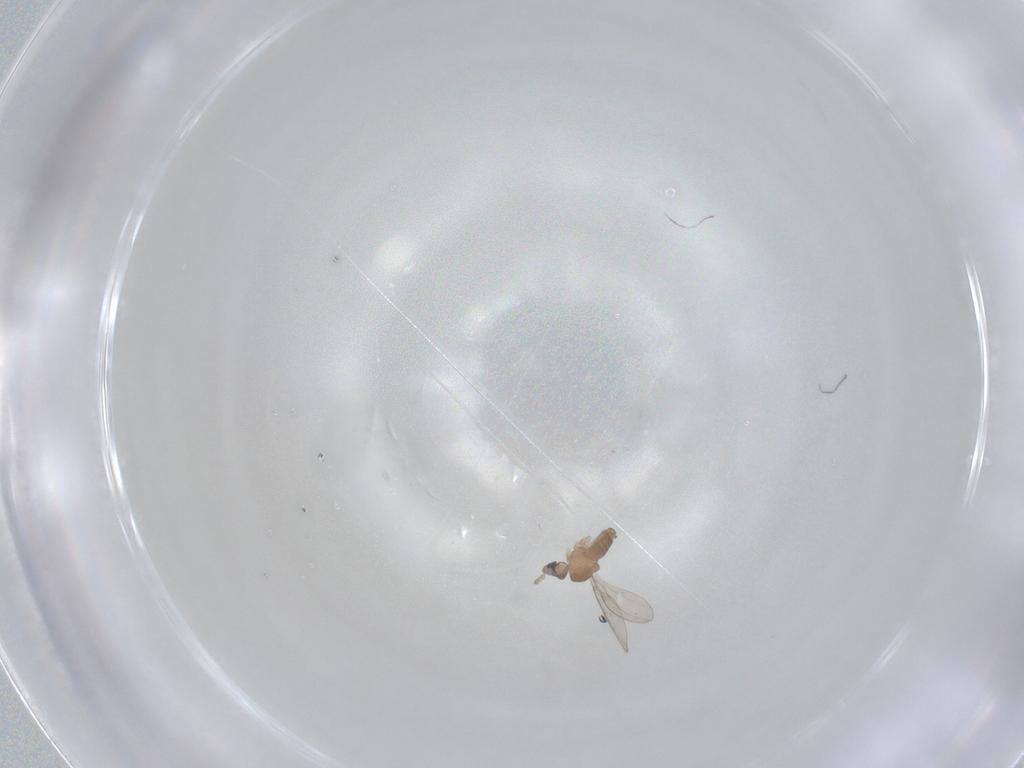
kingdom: Animalia
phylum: Arthropoda
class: Insecta
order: Diptera
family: Cecidomyiidae
